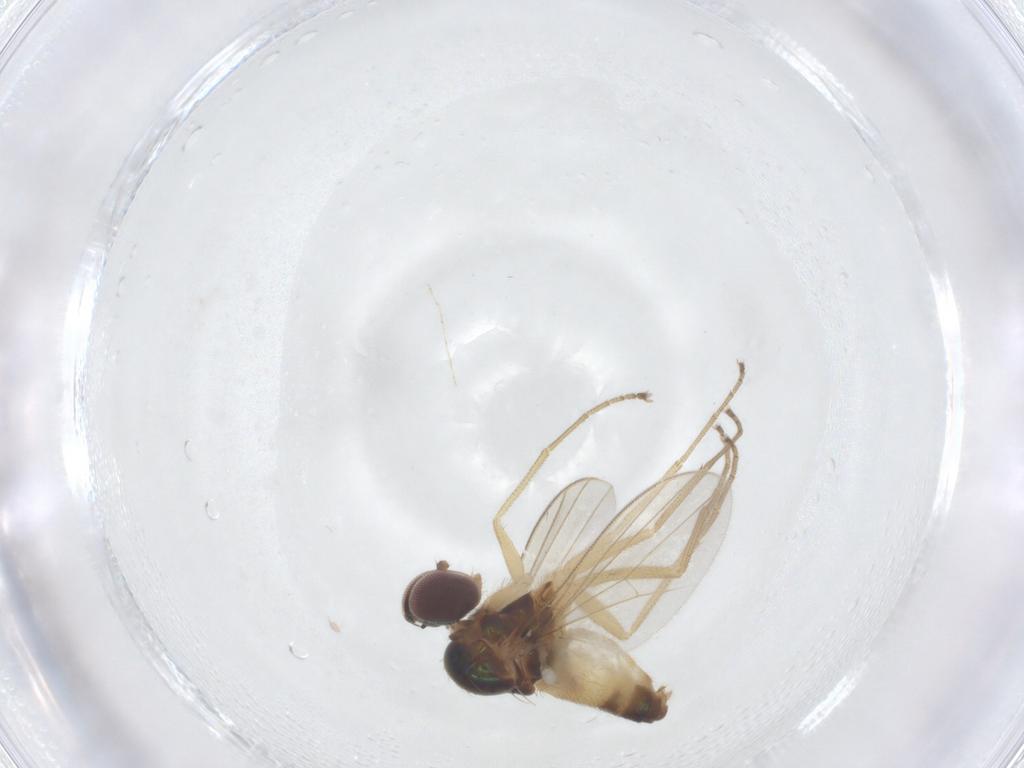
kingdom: Animalia
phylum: Arthropoda
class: Insecta
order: Diptera
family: Dolichopodidae
